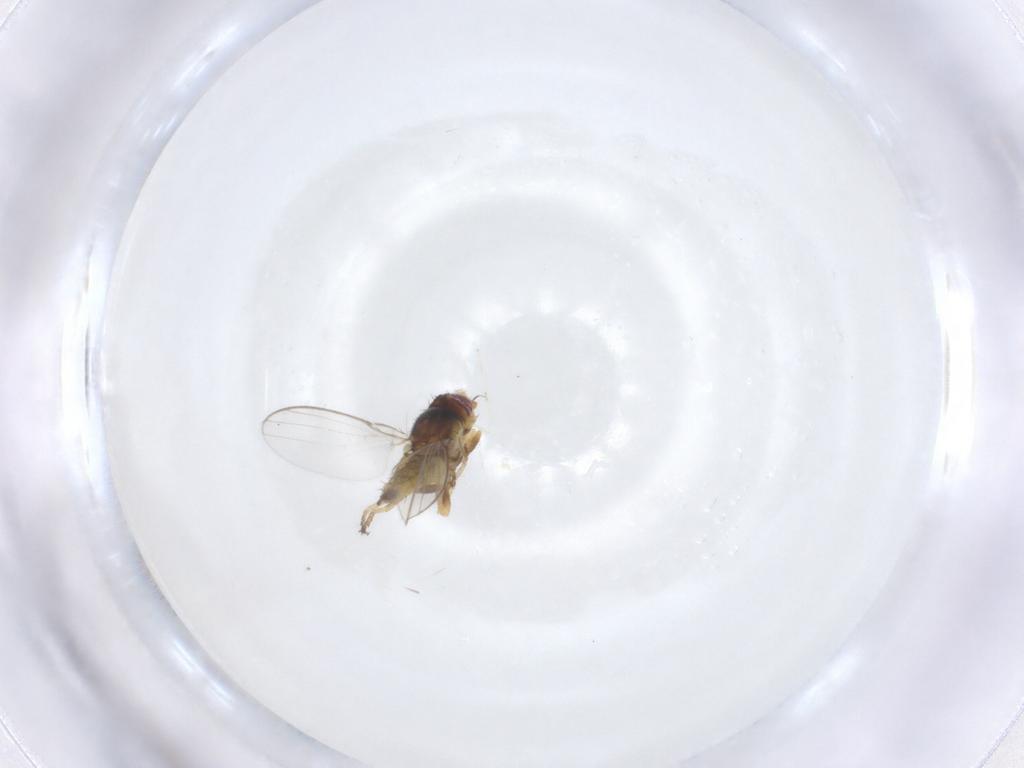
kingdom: Animalia
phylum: Arthropoda
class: Insecta
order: Diptera
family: Chloropidae
